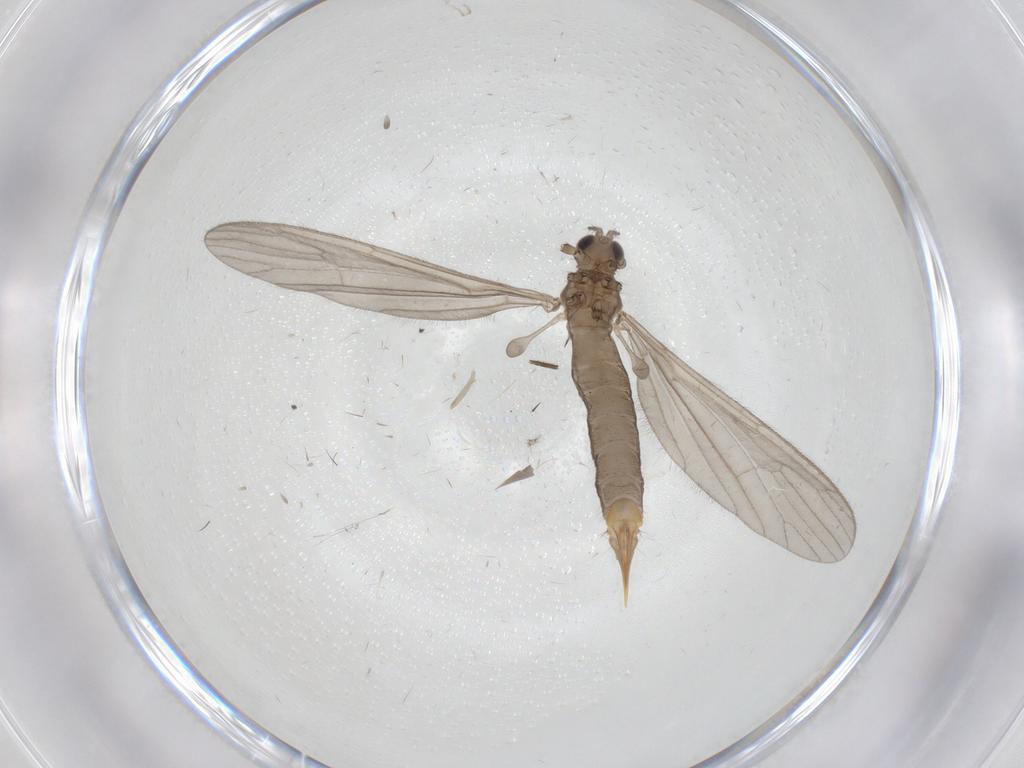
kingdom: Animalia
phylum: Arthropoda
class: Insecta
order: Diptera
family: Limoniidae
